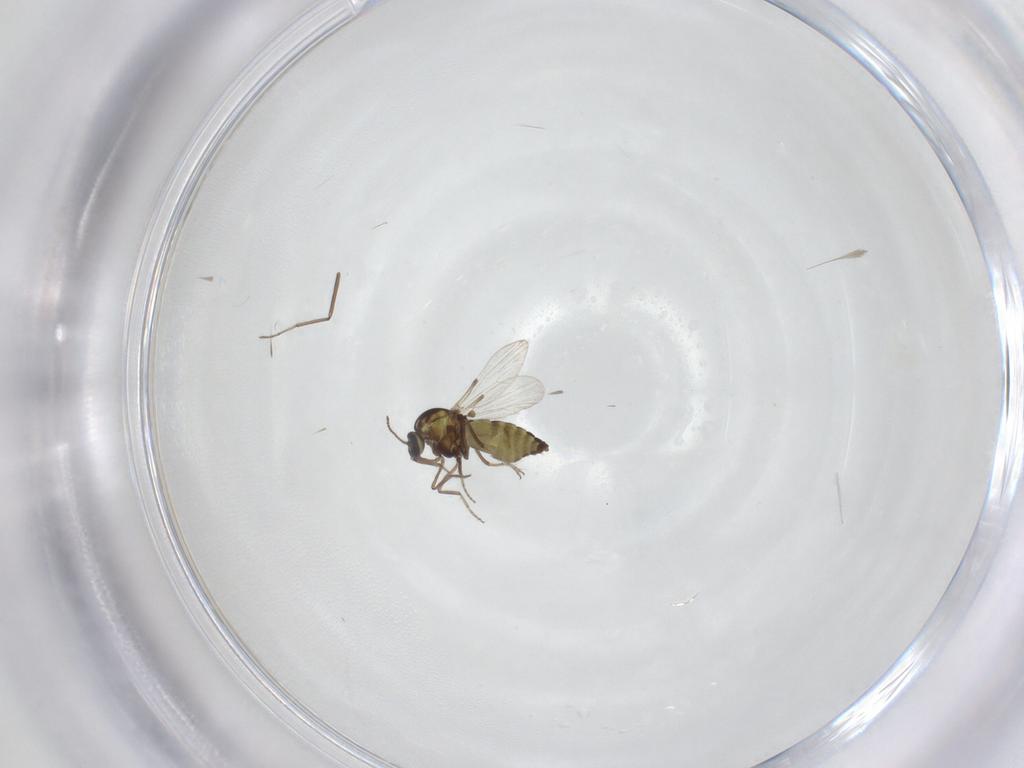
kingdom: Animalia
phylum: Arthropoda
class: Insecta
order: Diptera
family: Ceratopogonidae
